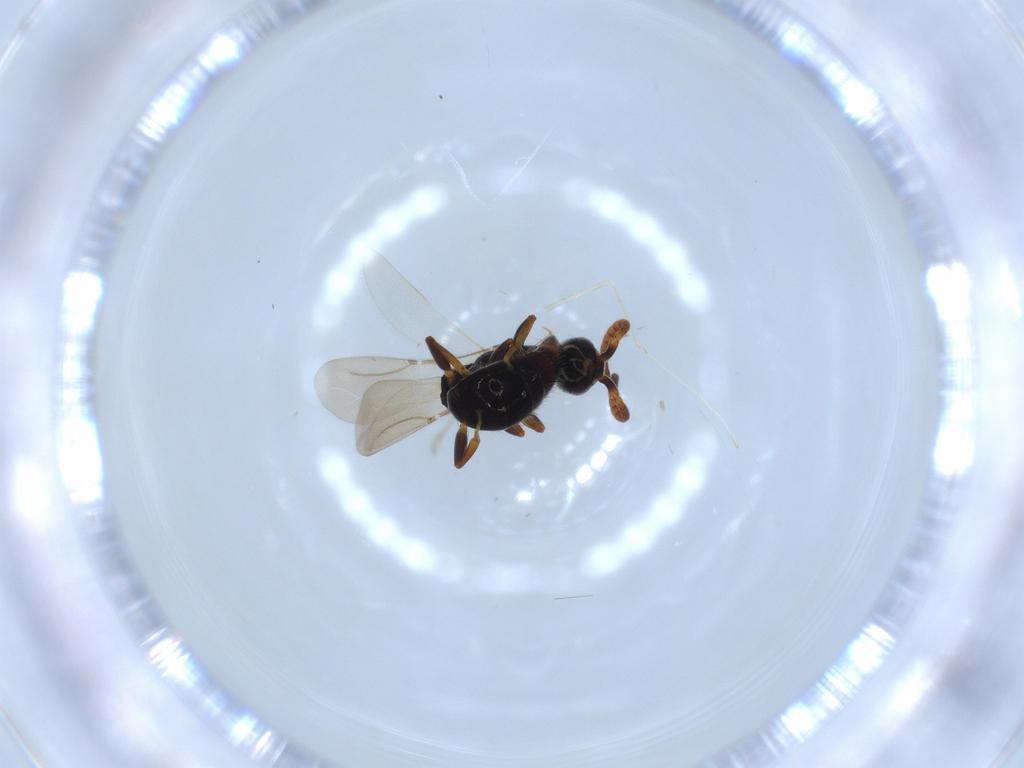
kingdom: Animalia
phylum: Arthropoda
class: Insecta
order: Hymenoptera
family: Bethylidae
